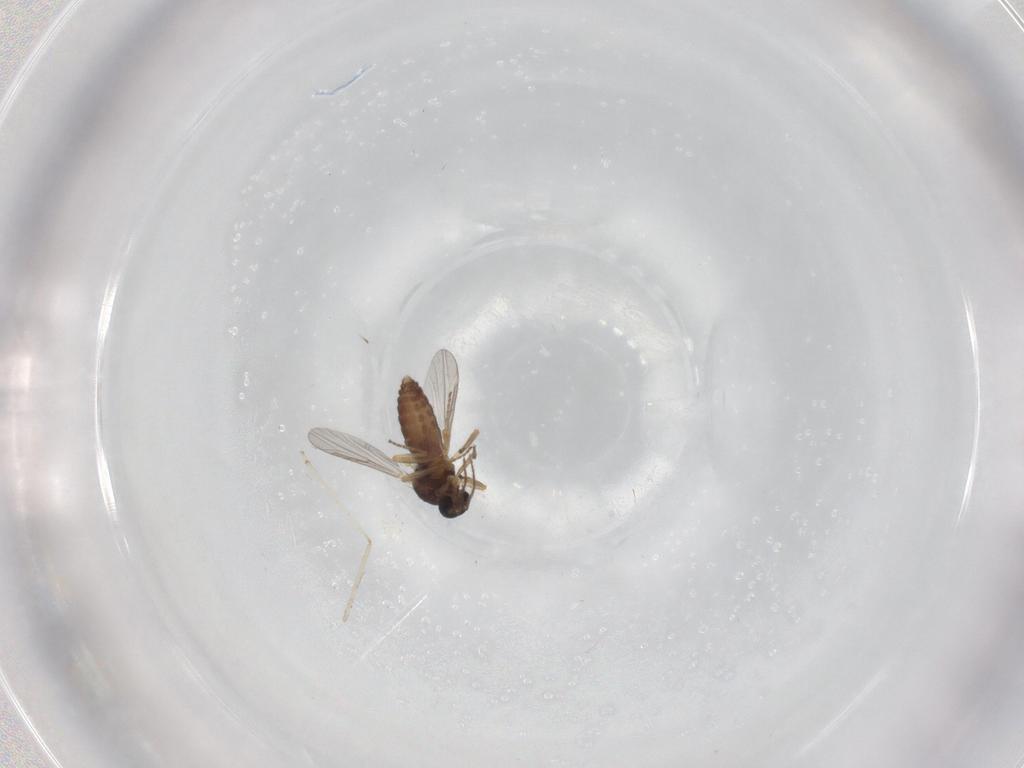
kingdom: Animalia
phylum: Arthropoda
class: Insecta
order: Diptera
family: Ceratopogonidae
